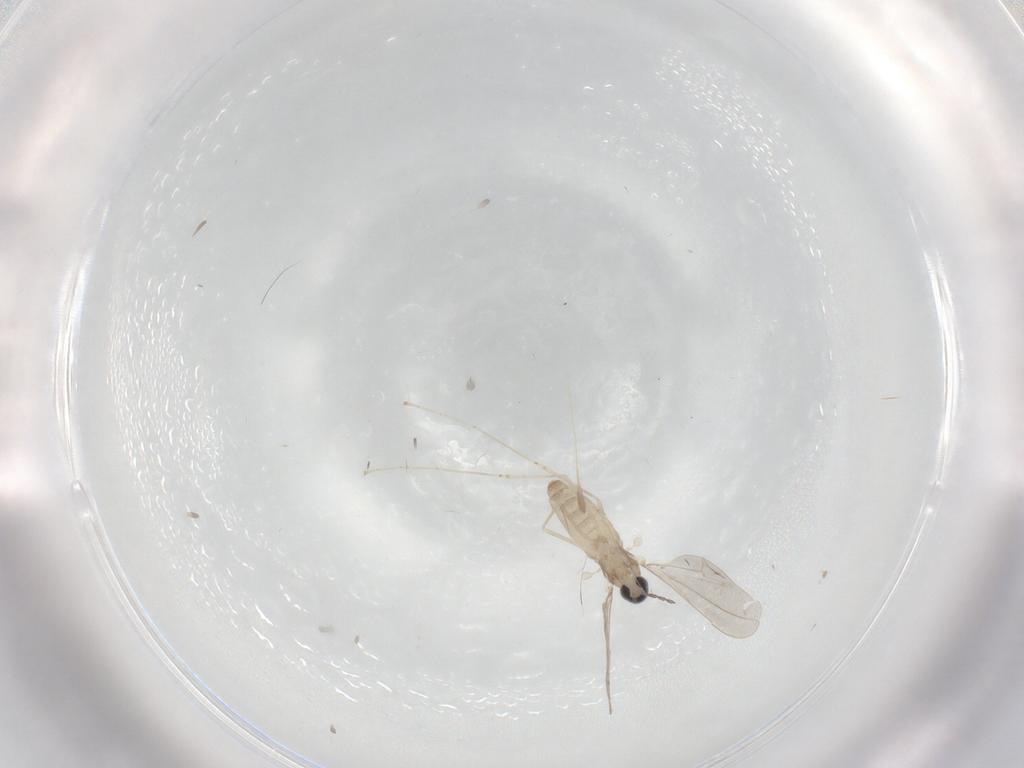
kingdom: Animalia
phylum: Arthropoda
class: Insecta
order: Diptera
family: Cecidomyiidae
